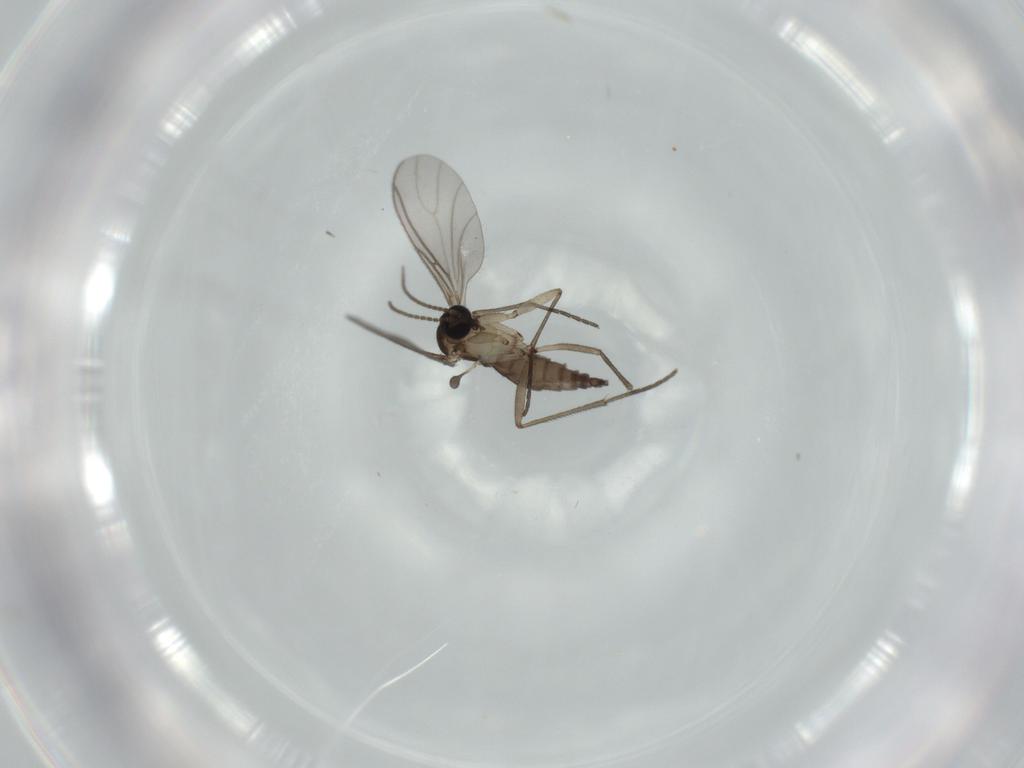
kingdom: Animalia
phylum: Arthropoda
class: Insecta
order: Diptera
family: Sciaridae
